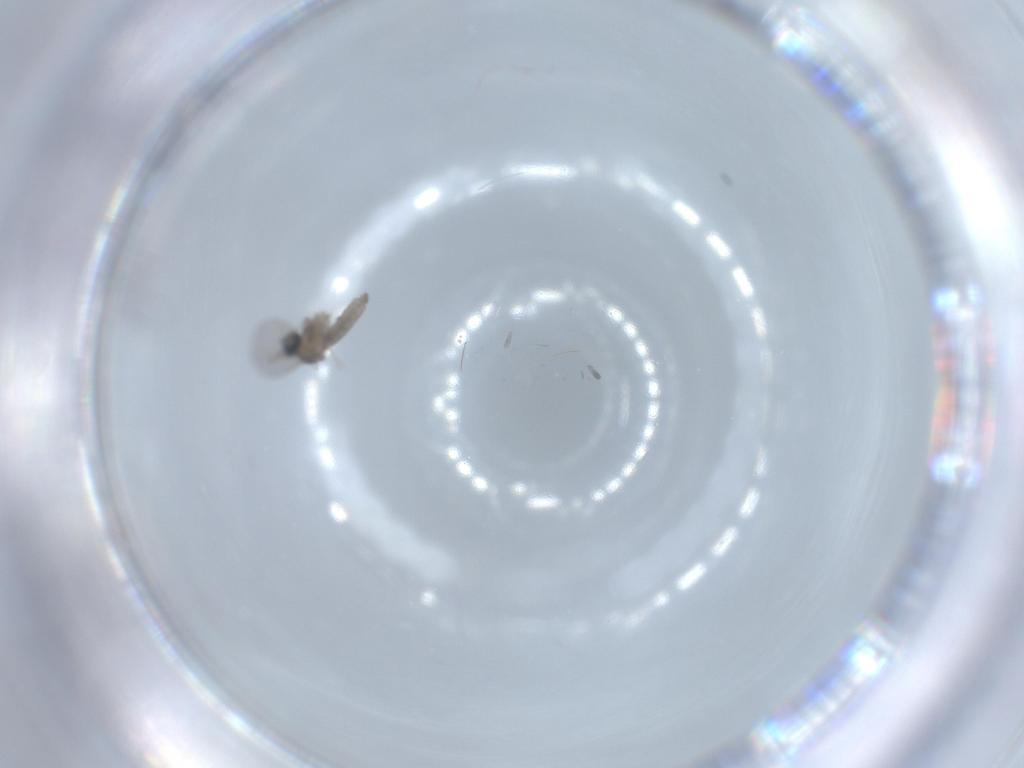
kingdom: Animalia
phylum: Arthropoda
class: Insecta
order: Diptera
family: Cecidomyiidae
